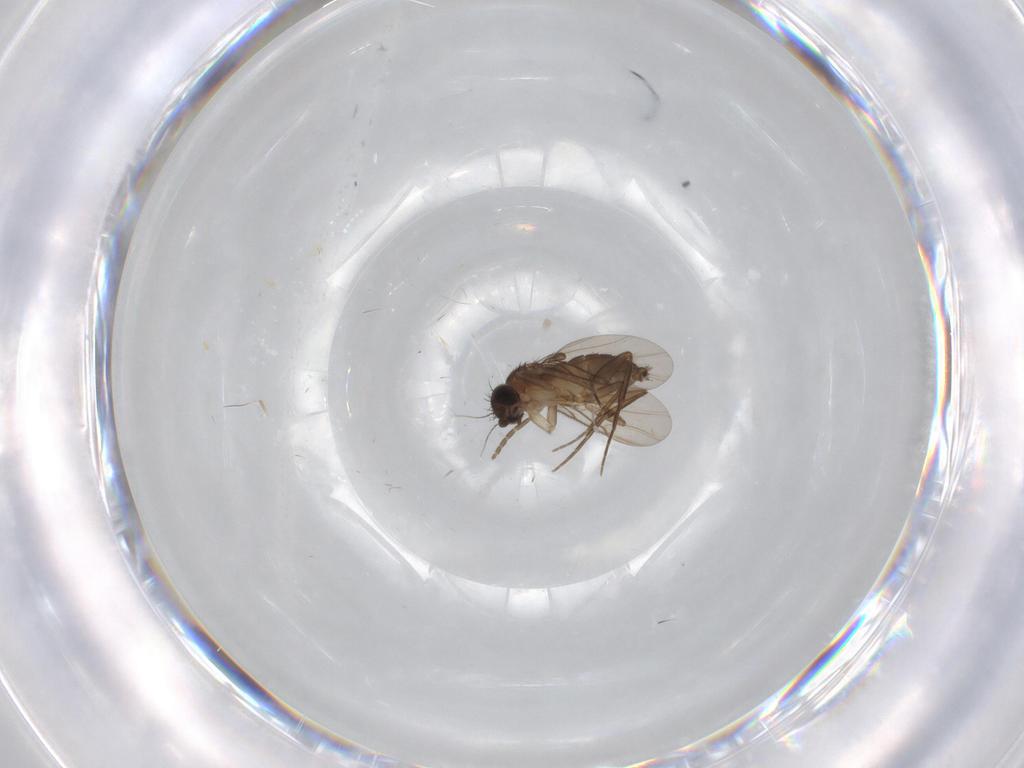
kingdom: Animalia
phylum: Arthropoda
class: Insecta
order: Diptera
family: Phoridae
